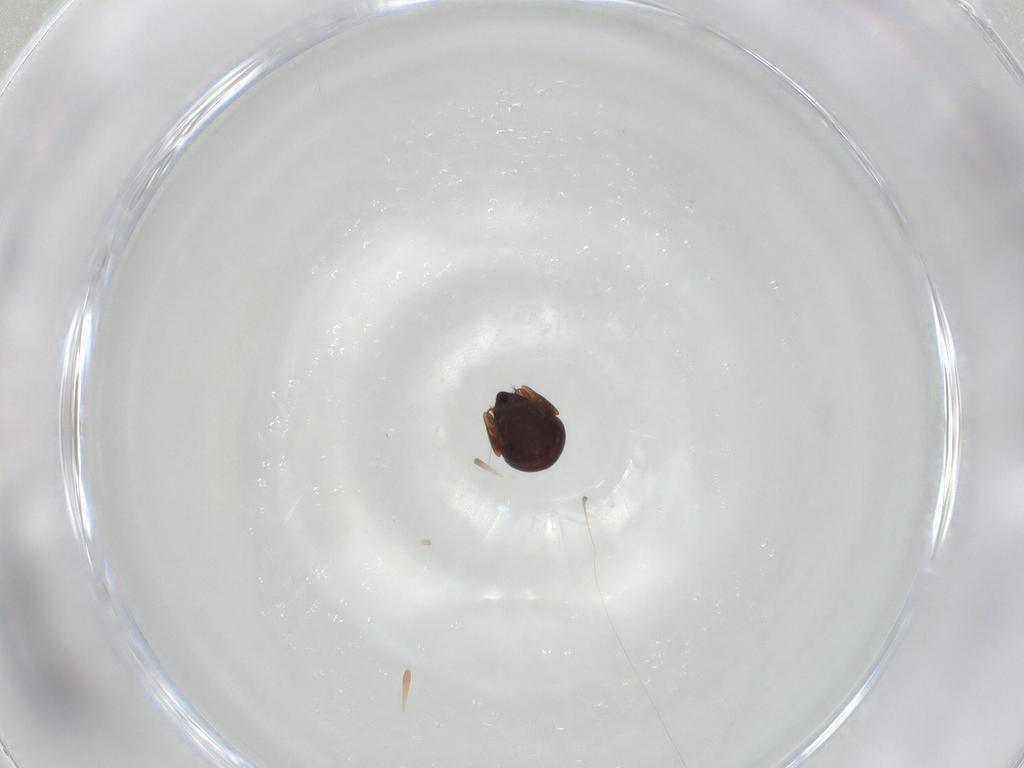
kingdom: Animalia
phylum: Arthropoda
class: Arachnida
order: Sarcoptiformes
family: Galumnidae
